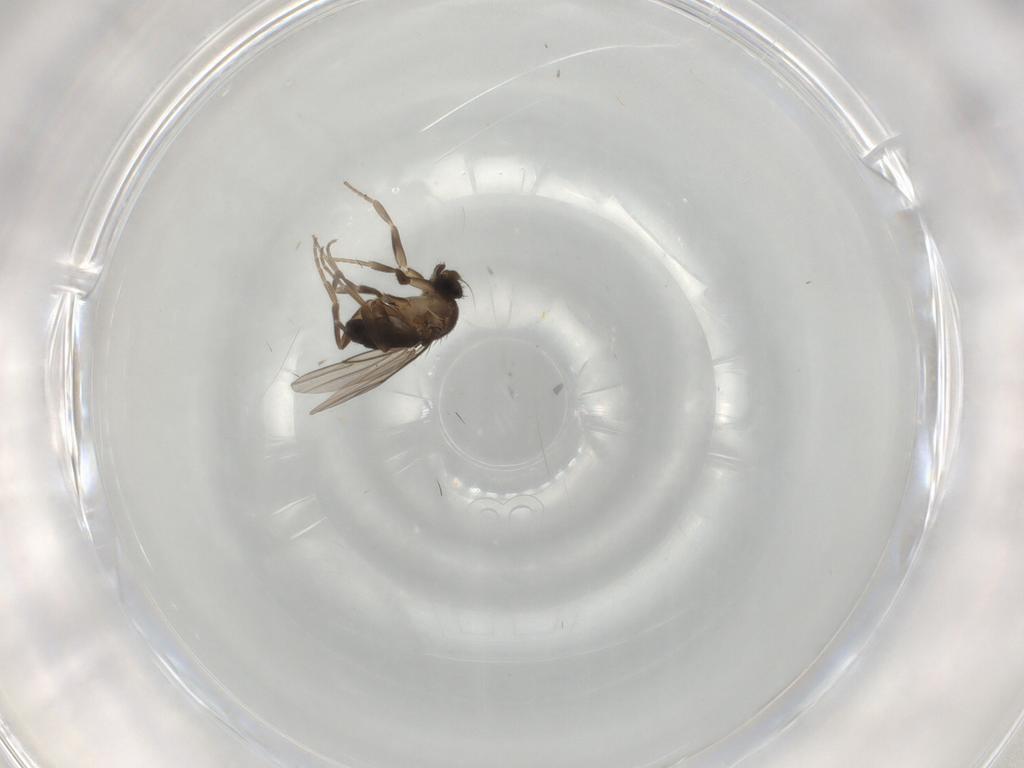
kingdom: Animalia
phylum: Arthropoda
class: Insecta
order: Diptera
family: Phoridae
